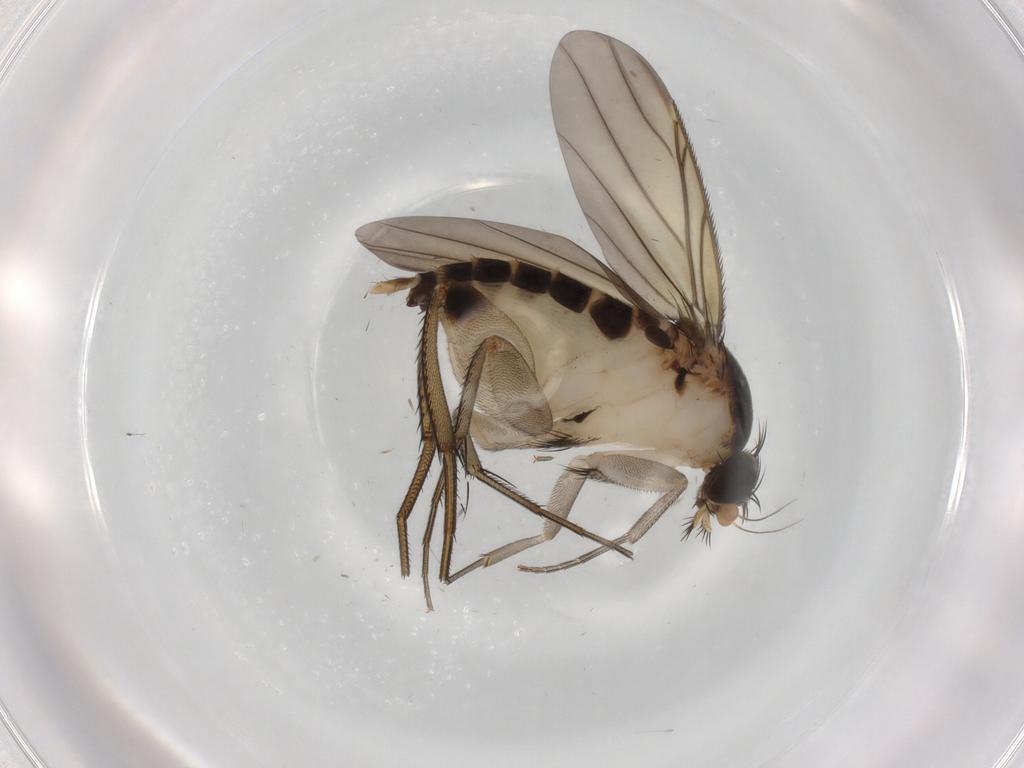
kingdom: Animalia
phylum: Arthropoda
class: Insecta
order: Diptera
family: Phoridae
